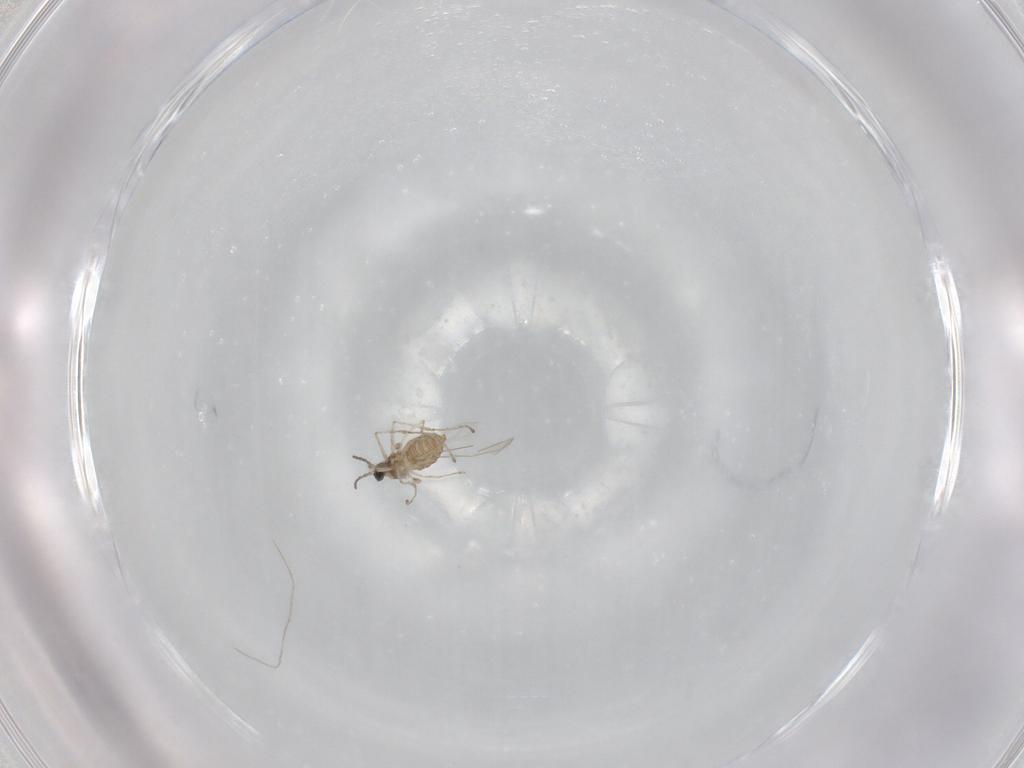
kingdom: Animalia
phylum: Arthropoda
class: Insecta
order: Diptera
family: Cecidomyiidae
